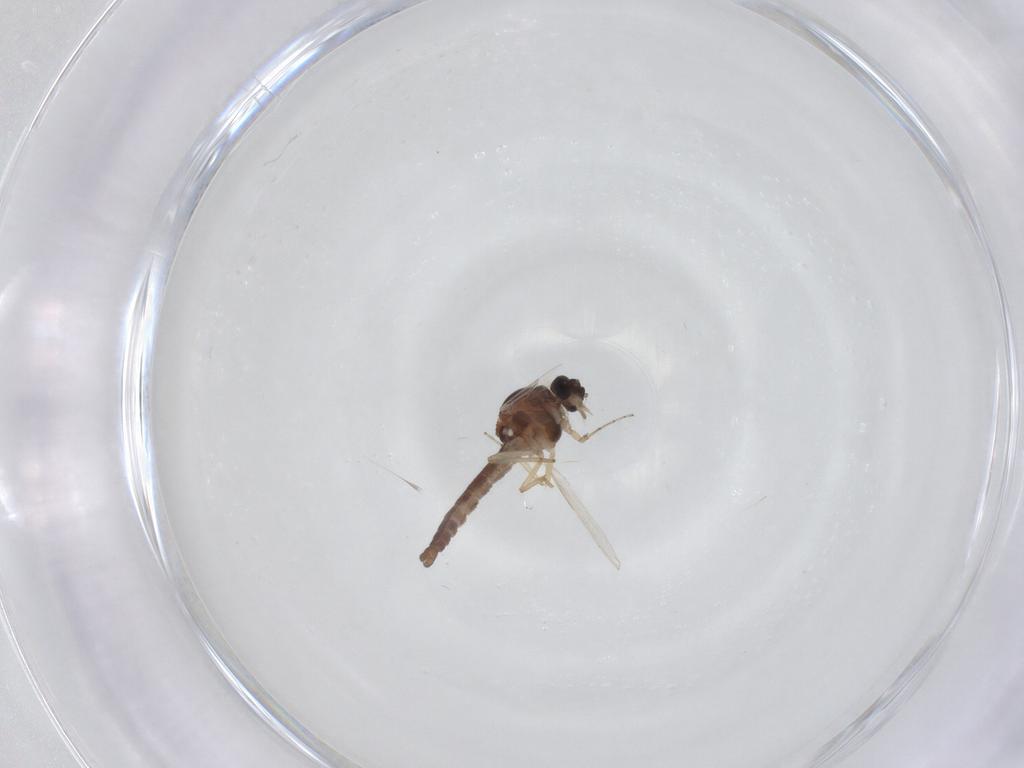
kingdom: Animalia
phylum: Arthropoda
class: Insecta
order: Diptera
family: Ceratopogonidae
